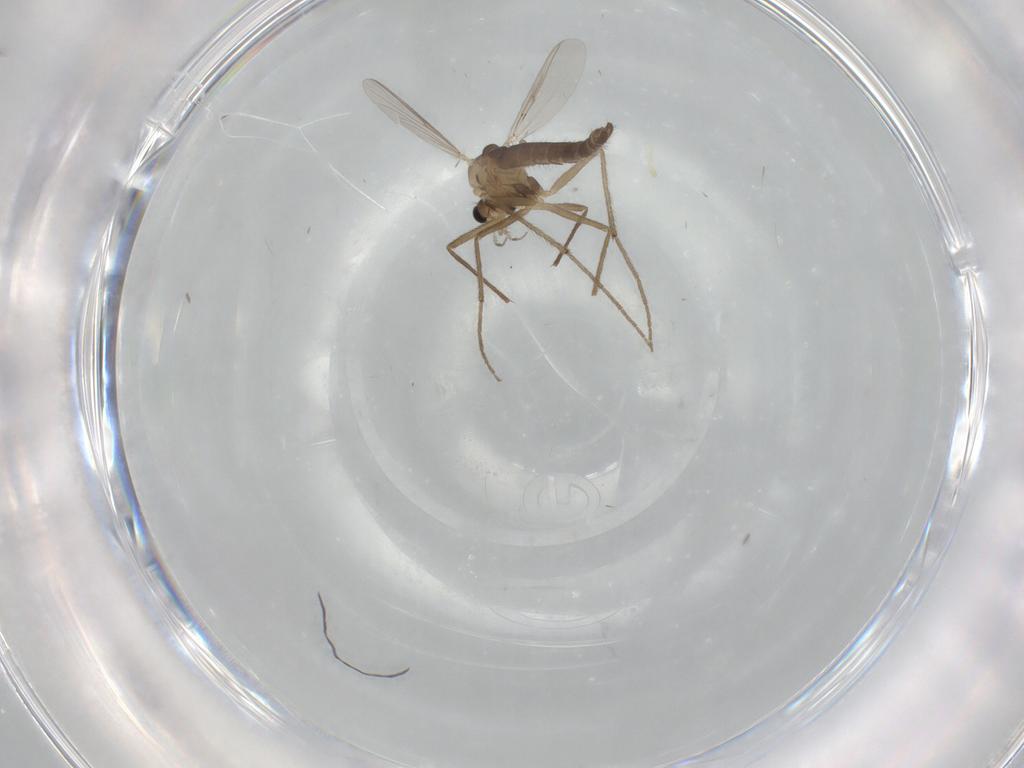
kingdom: Animalia
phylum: Arthropoda
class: Insecta
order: Diptera
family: Chironomidae
